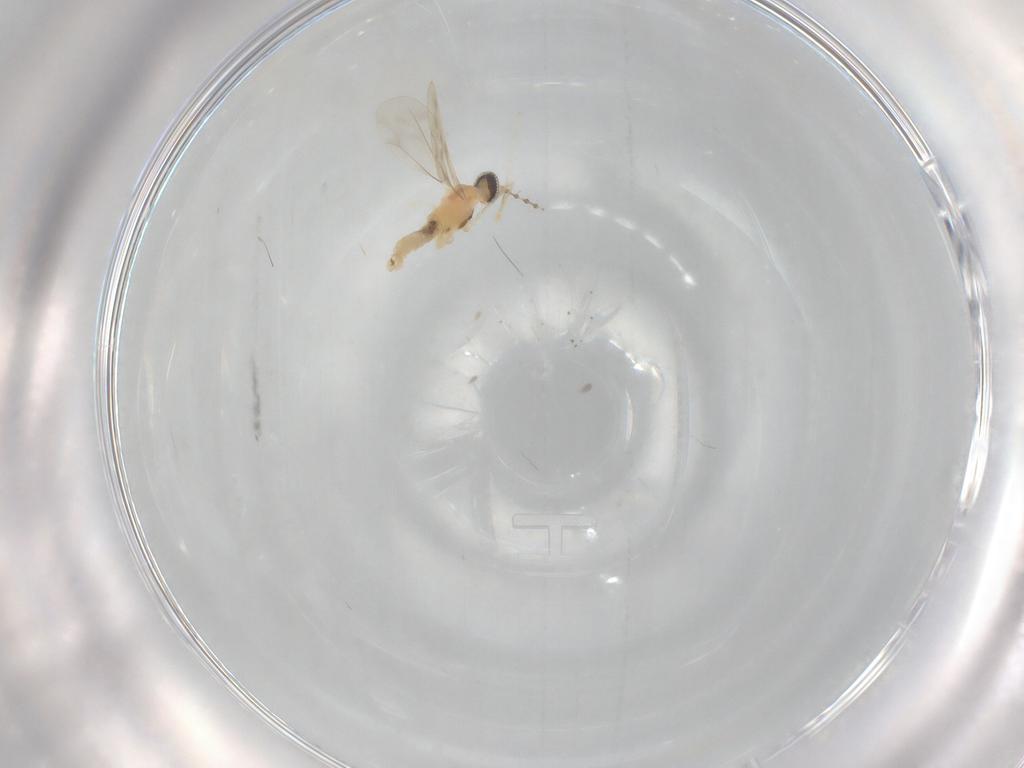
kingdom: Animalia
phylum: Arthropoda
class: Insecta
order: Diptera
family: Cecidomyiidae
